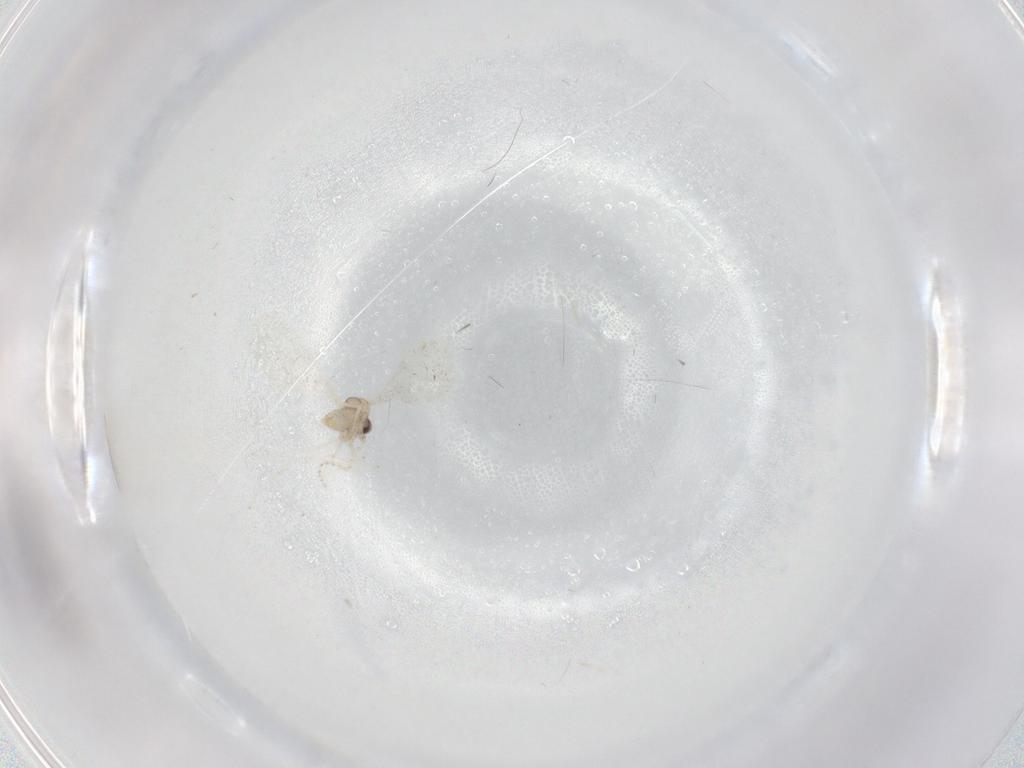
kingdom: Animalia
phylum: Arthropoda
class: Insecta
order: Diptera
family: Cecidomyiidae
